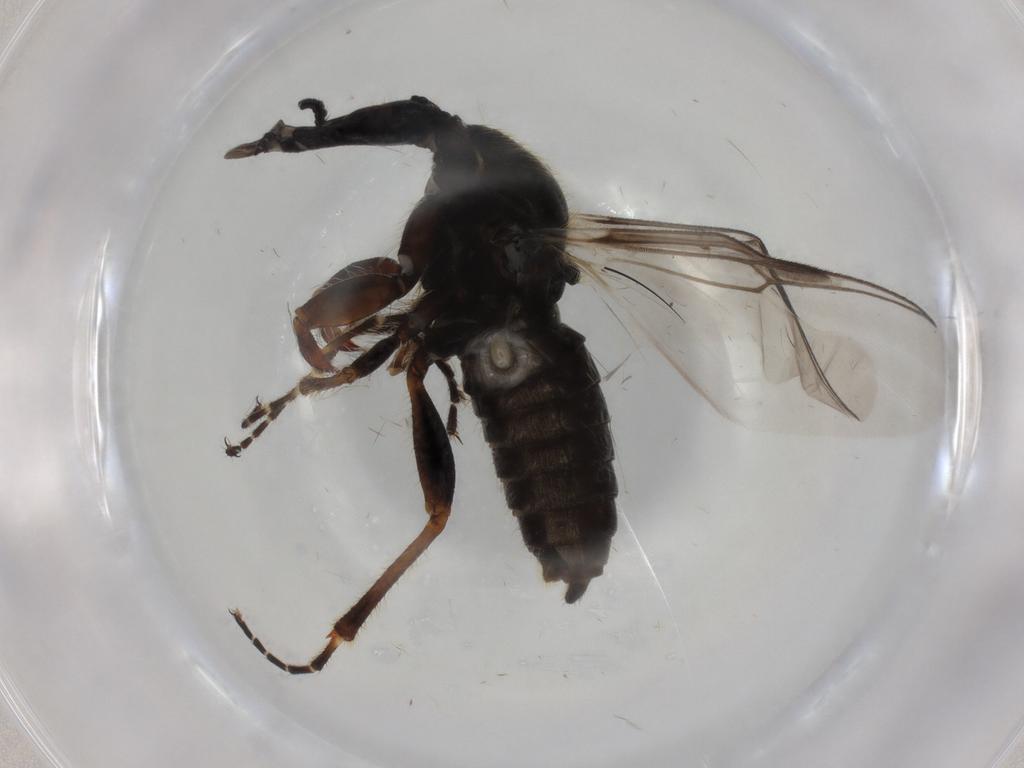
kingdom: Animalia
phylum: Arthropoda
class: Insecta
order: Diptera
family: Bibionidae
